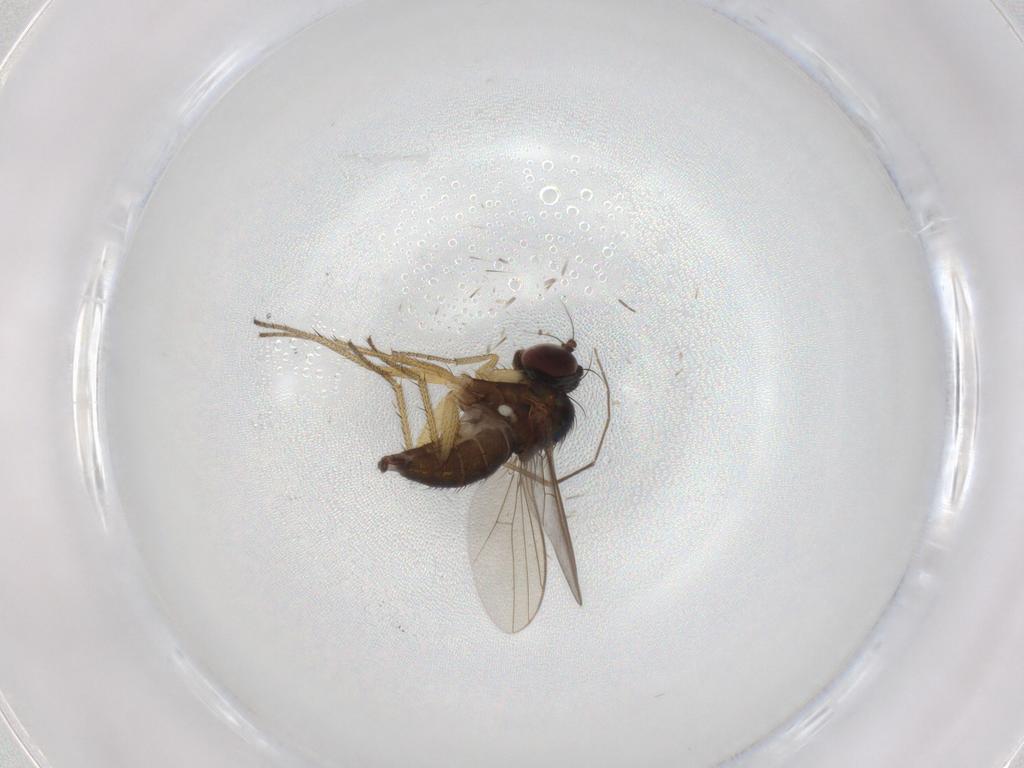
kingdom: Animalia
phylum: Arthropoda
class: Insecta
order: Diptera
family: Chironomidae
